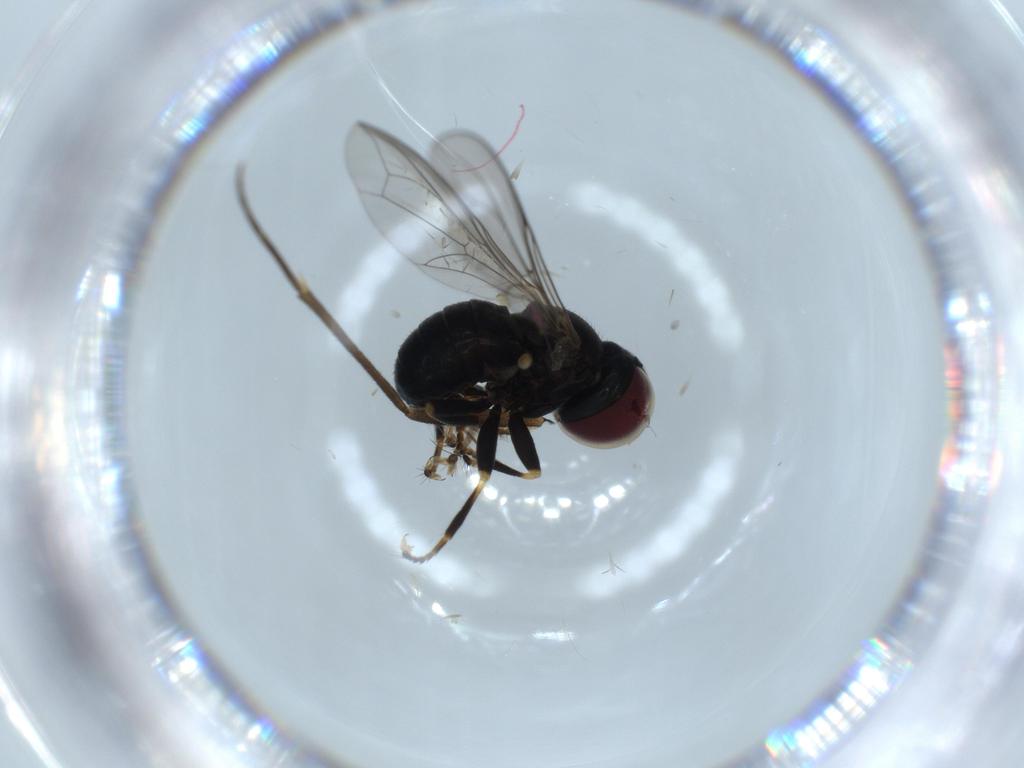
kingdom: Animalia
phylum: Arthropoda
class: Insecta
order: Diptera
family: Pipunculidae
